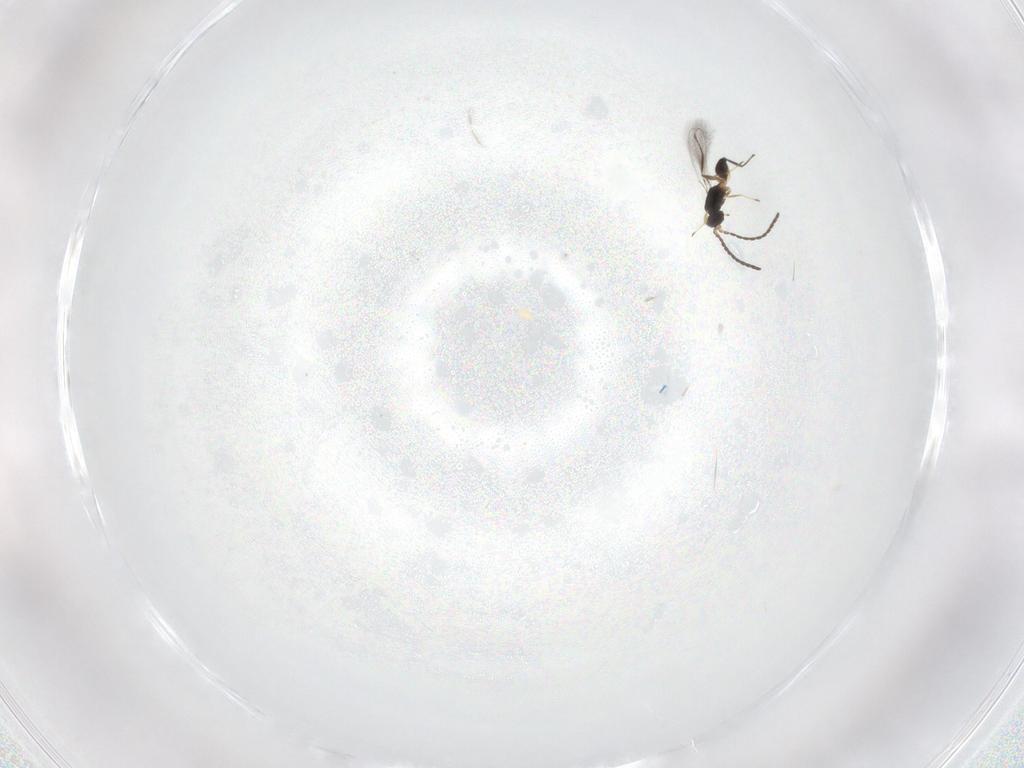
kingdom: Animalia
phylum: Arthropoda
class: Insecta
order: Hymenoptera
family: Mymaridae
